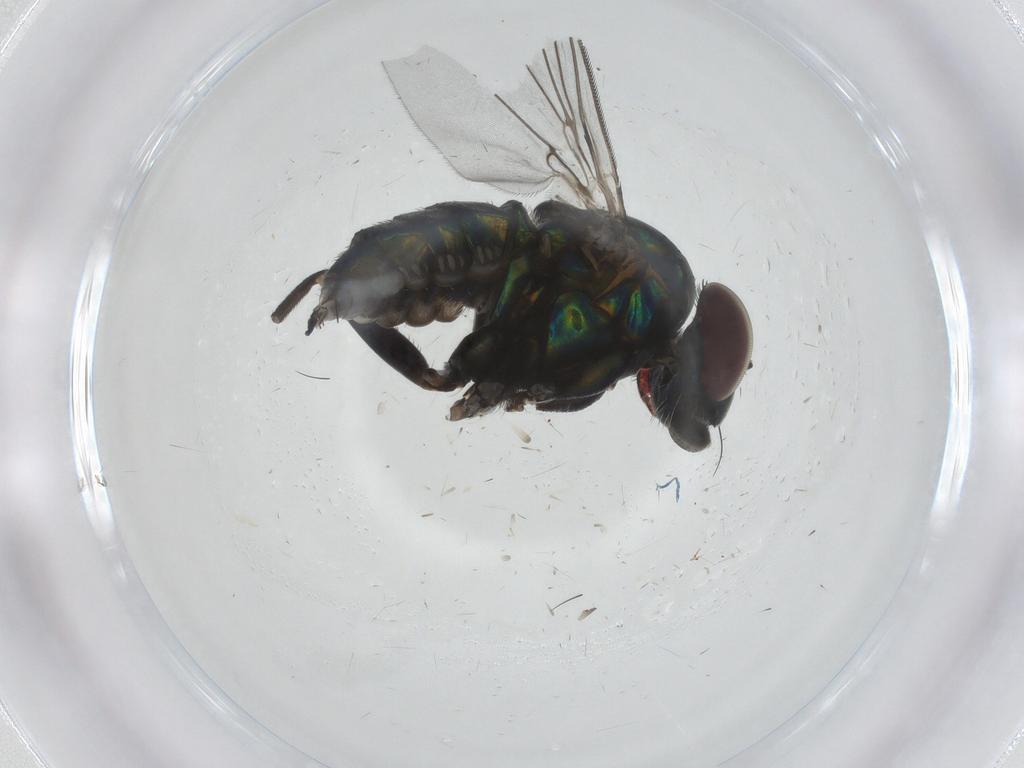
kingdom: Animalia
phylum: Arthropoda
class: Insecta
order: Diptera
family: Dolichopodidae
